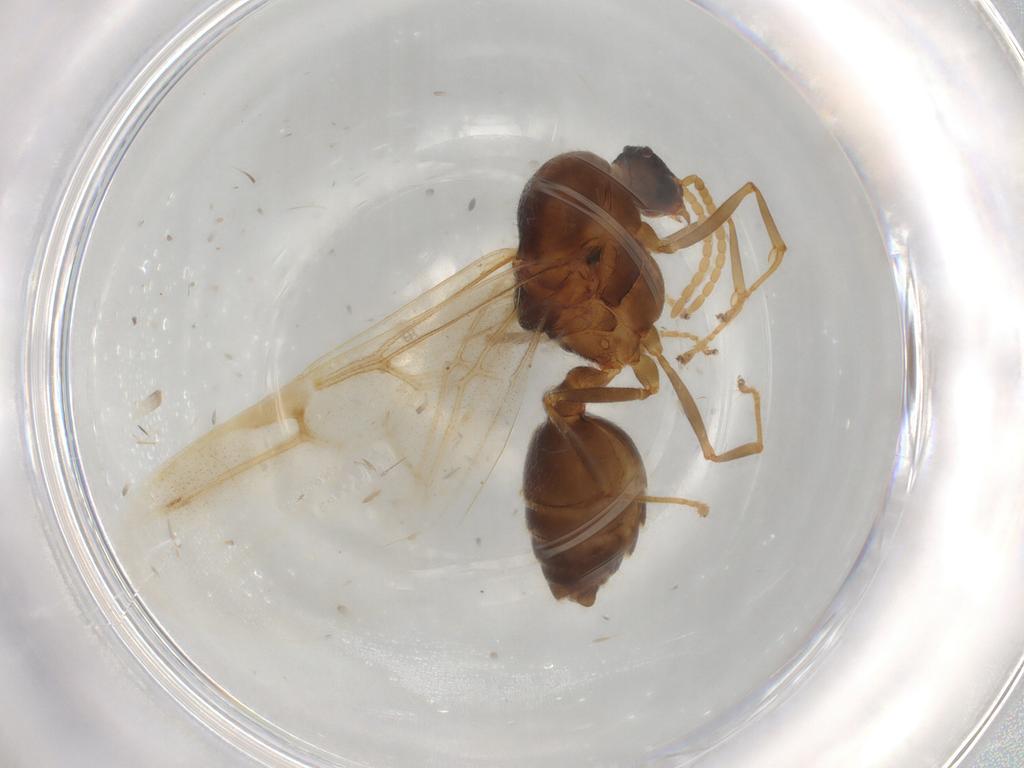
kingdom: Animalia
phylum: Arthropoda
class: Insecta
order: Hymenoptera
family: Formicidae
